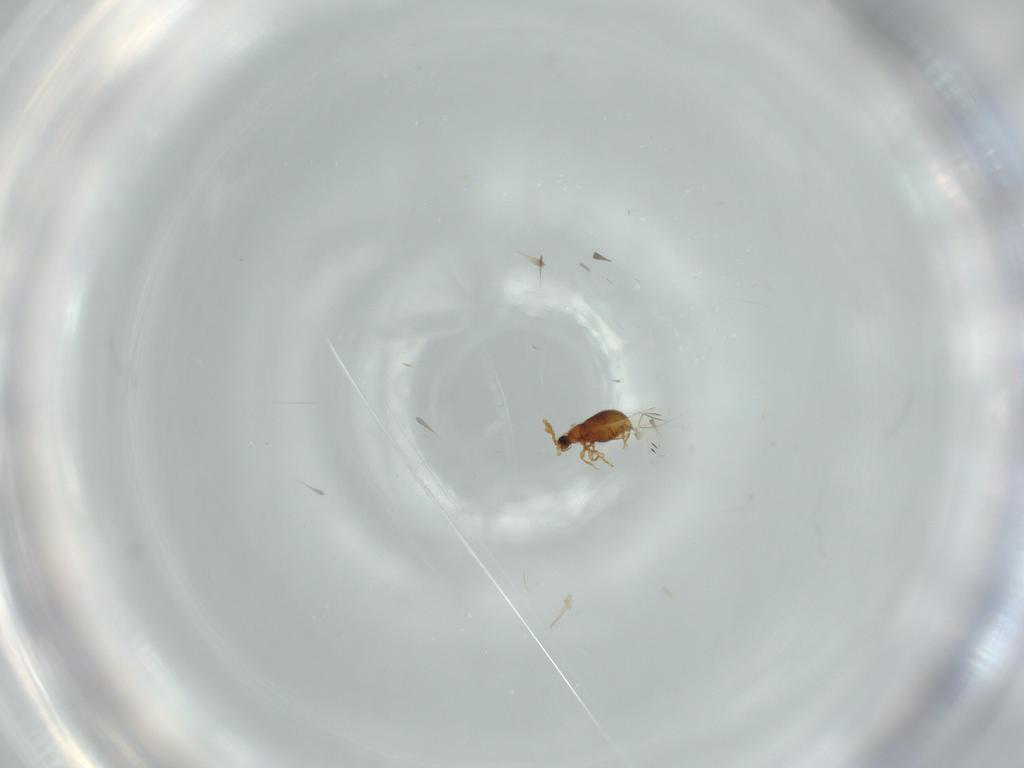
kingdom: Animalia
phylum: Arthropoda
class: Insecta
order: Coleoptera
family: Staphylinidae
